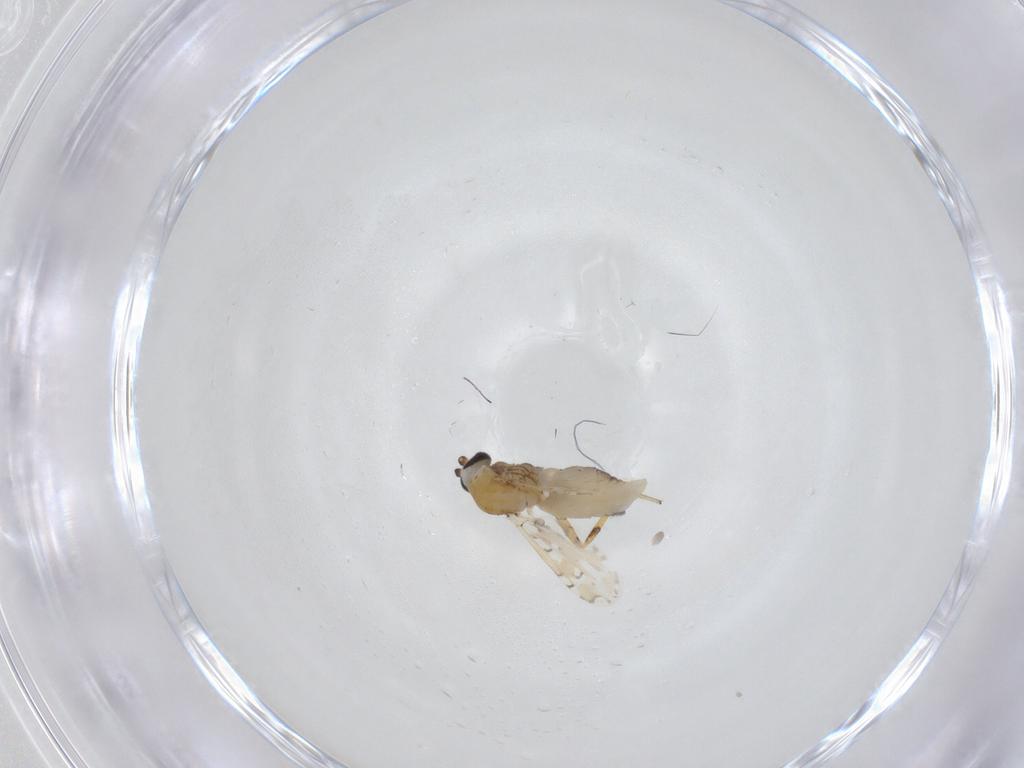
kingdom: Animalia
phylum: Arthropoda
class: Insecta
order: Diptera
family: Ceratopogonidae
